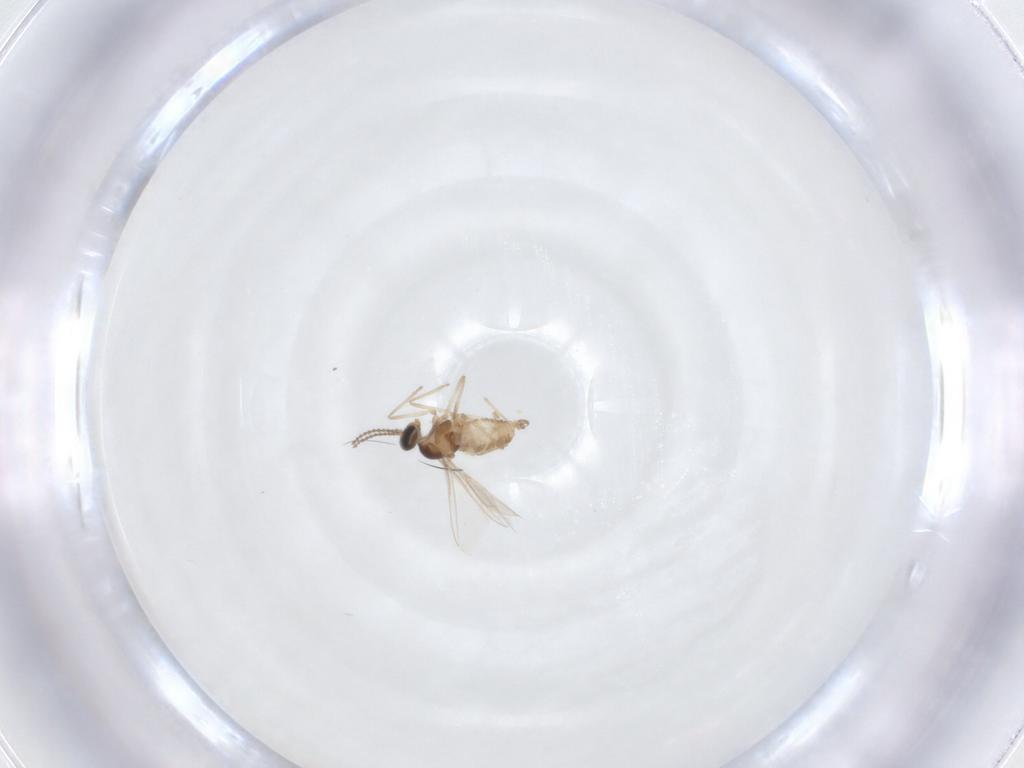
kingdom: Animalia
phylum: Arthropoda
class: Insecta
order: Diptera
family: Cecidomyiidae
